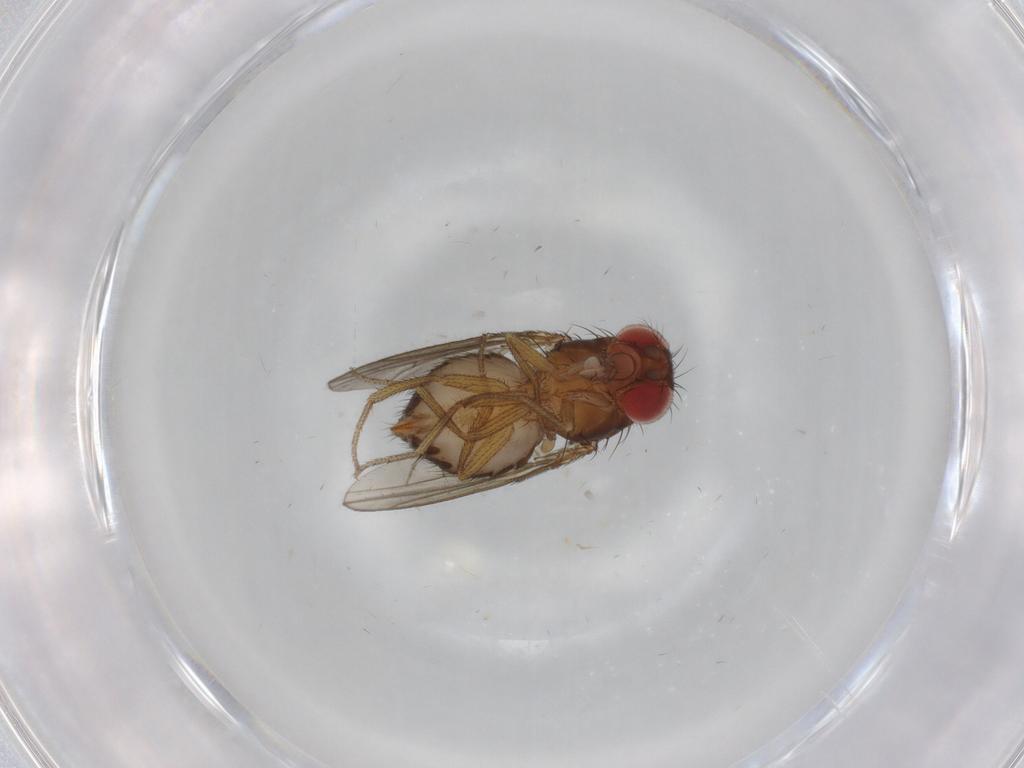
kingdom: Animalia
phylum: Arthropoda
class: Insecta
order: Diptera
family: Drosophilidae
